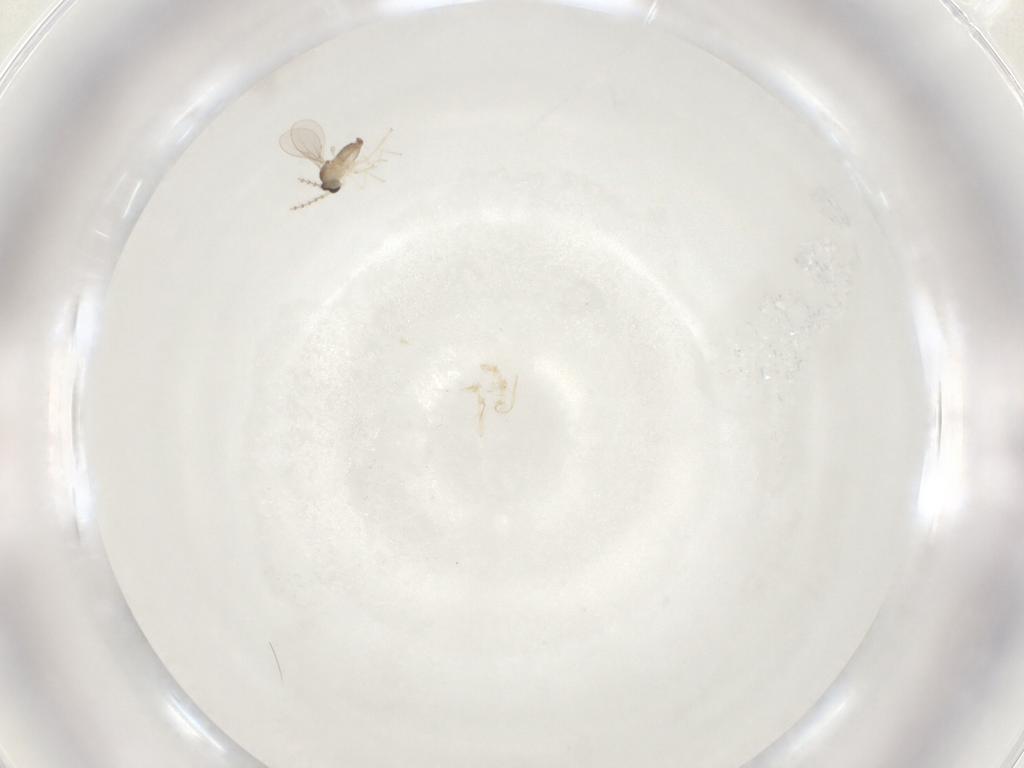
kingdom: Animalia
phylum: Arthropoda
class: Insecta
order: Diptera
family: Cecidomyiidae
